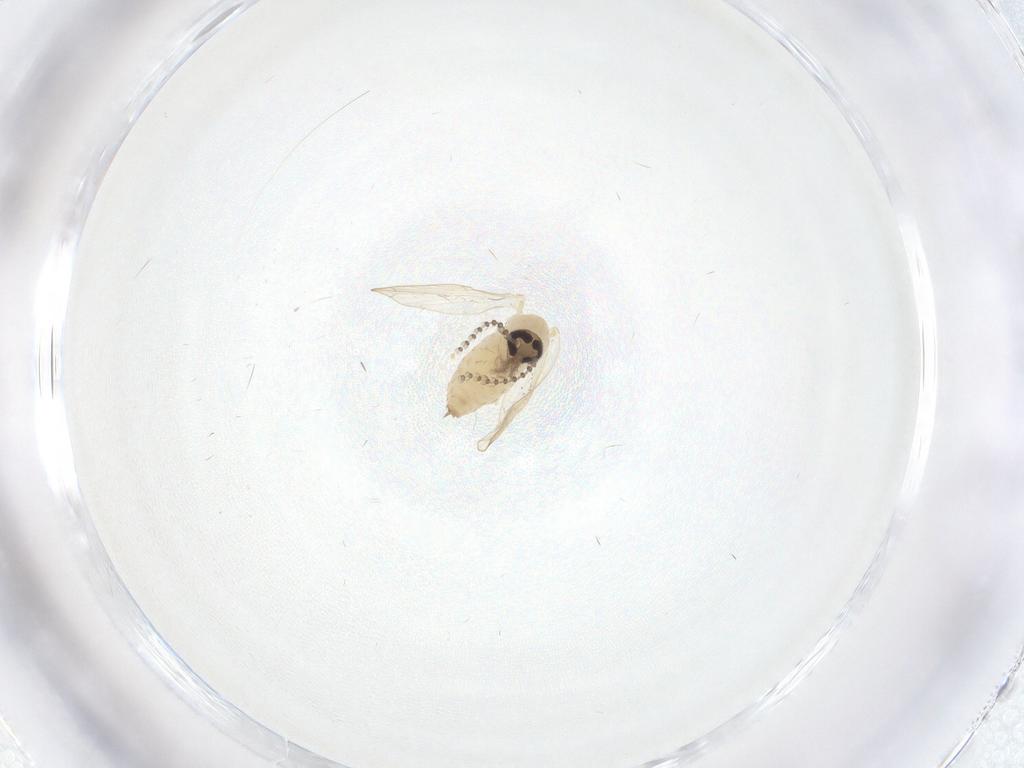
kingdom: Animalia
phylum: Arthropoda
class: Insecta
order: Diptera
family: Psychodidae
